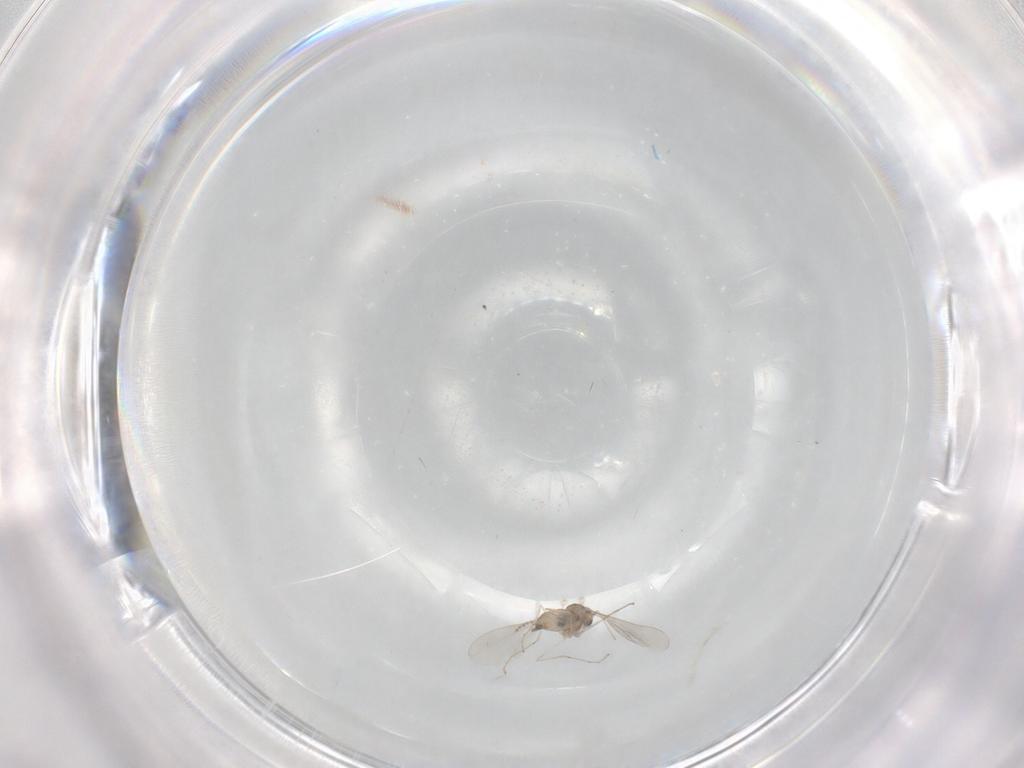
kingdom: Animalia
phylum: Arthropoda
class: Insecta
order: Diptera
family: Cecidomyiidae
